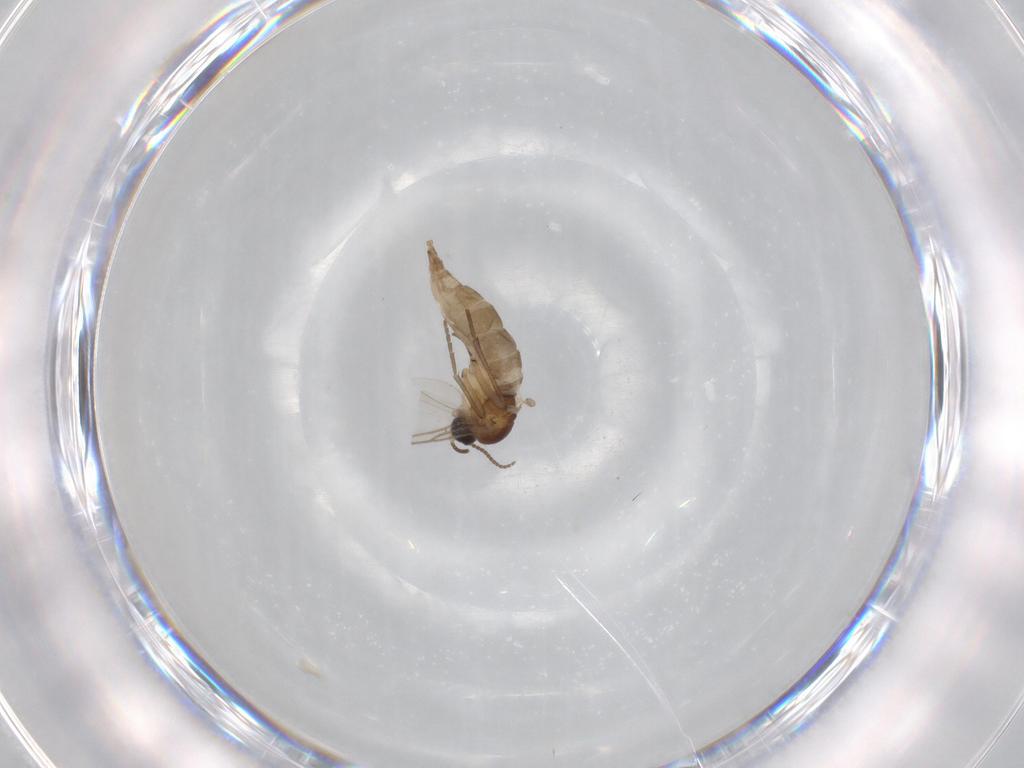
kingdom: Animalia
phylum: Arthropoda
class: Insecta
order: Diptera
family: Sciaridae
